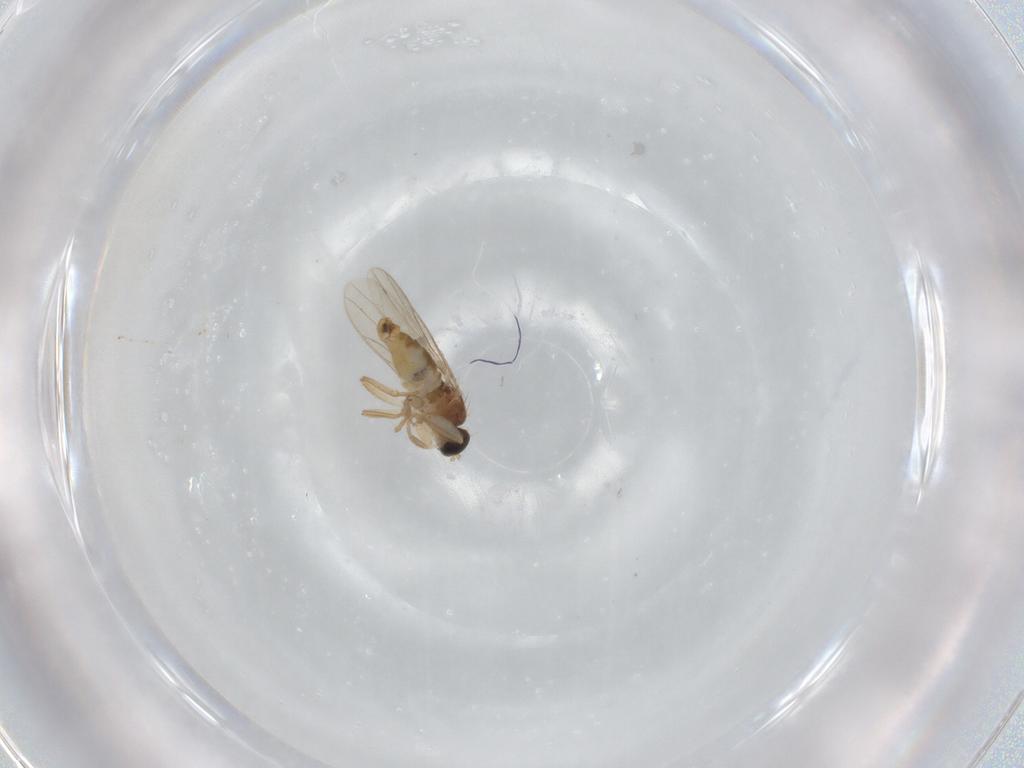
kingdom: Animalia
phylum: Arthropoda
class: Insecta
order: Diptera
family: Hybotidae
